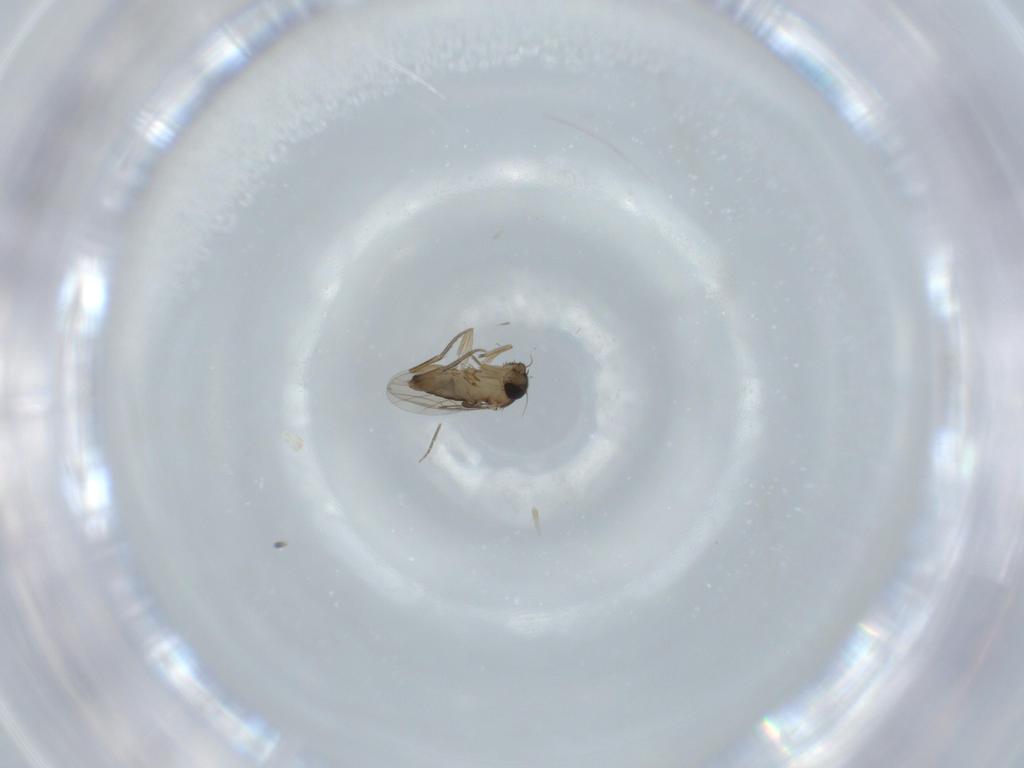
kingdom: Animalia
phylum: Arthropoda
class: Insecta
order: Diptera
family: Phoridae
